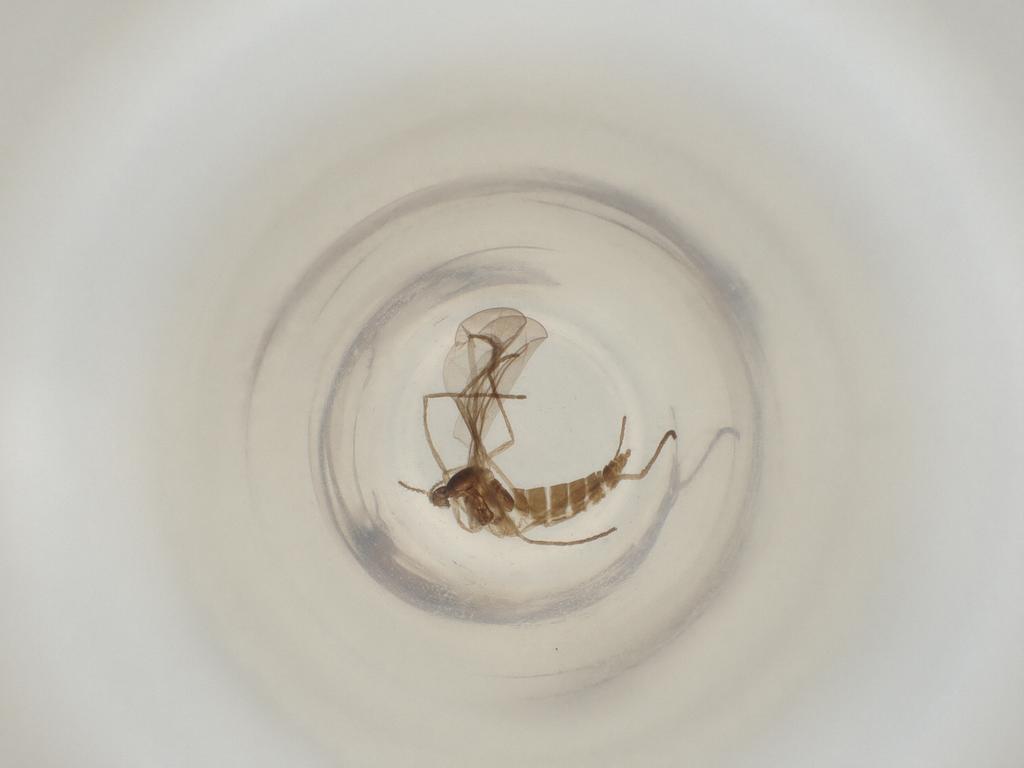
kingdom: Animalia
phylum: Arthropoda
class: Insecta
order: Diptera
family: Cecidomyiidae
